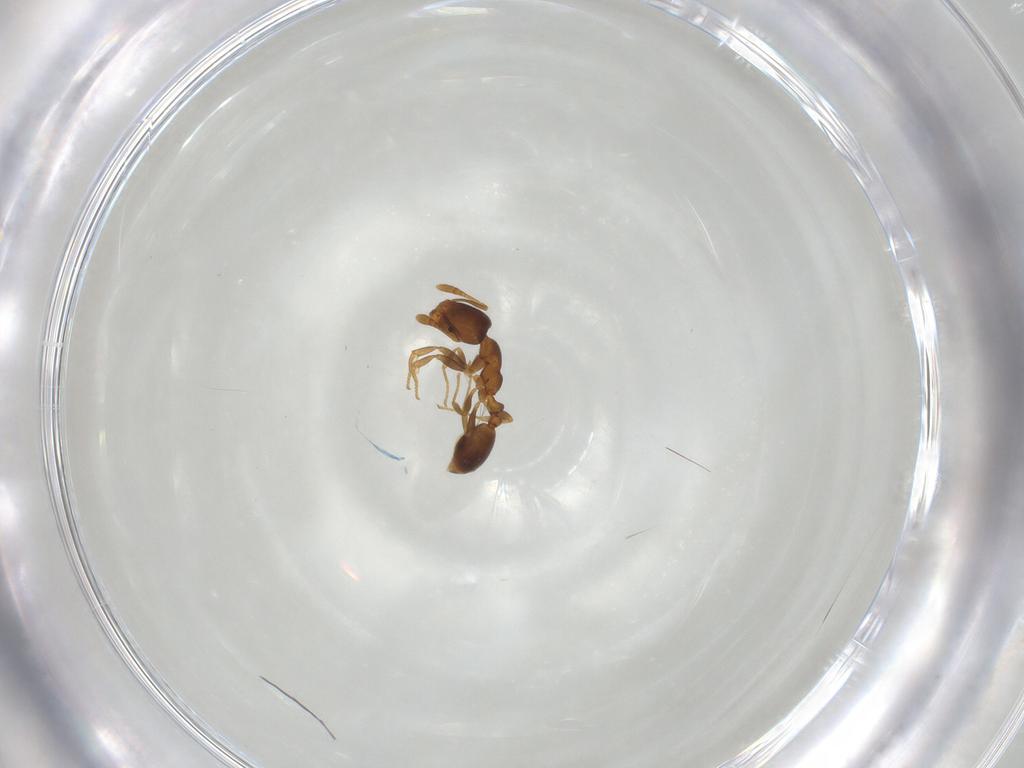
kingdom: Animalia
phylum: Arthropoda
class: Insecta
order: Hymenoptera
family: Formicidae
